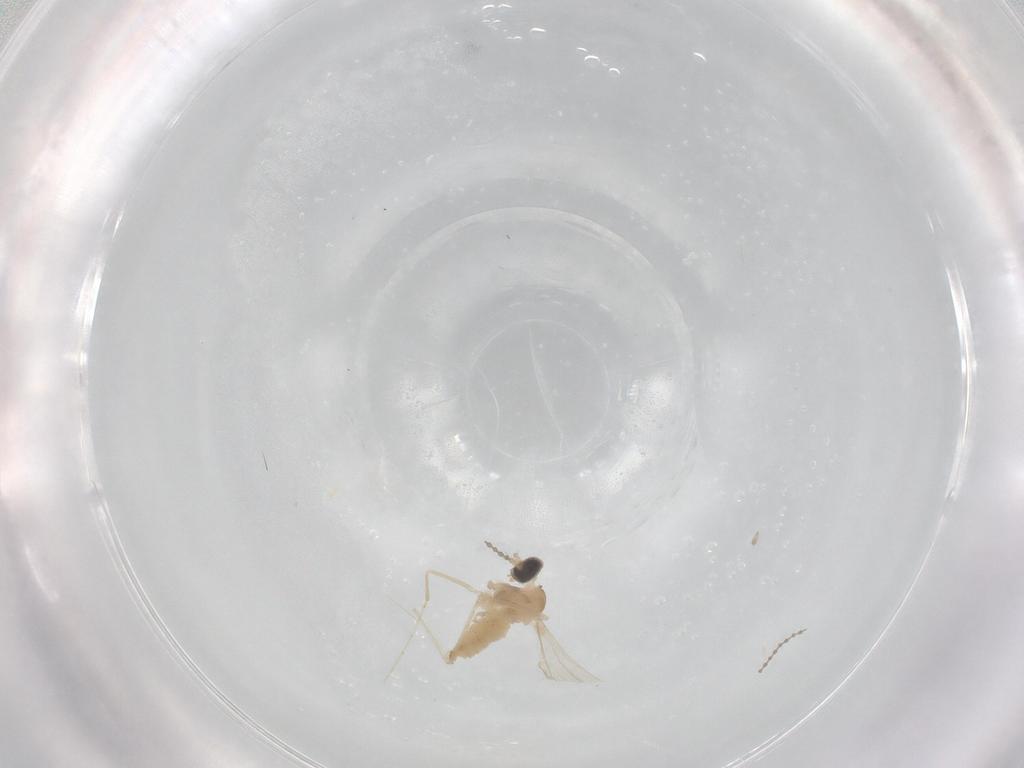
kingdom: Animalia
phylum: Arthropoda
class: Insecta
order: Diptera
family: Cecidomyiidae
